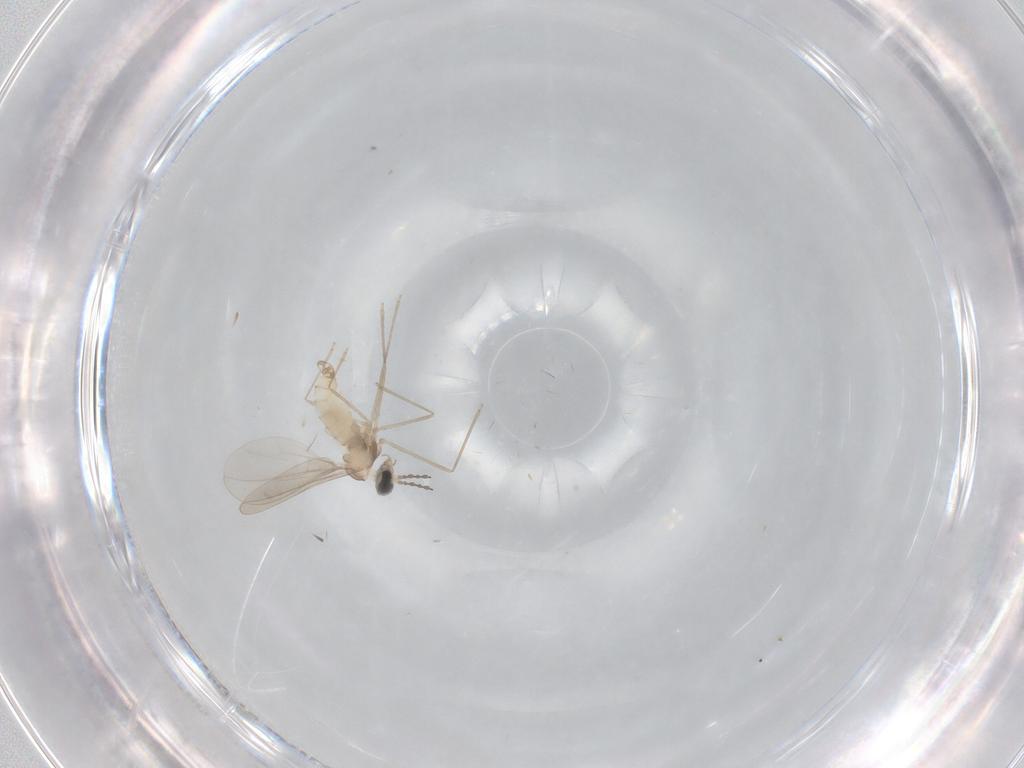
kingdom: Animalia
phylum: Arthropoda
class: Insecta
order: Diptera
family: Cecidomyiidae
